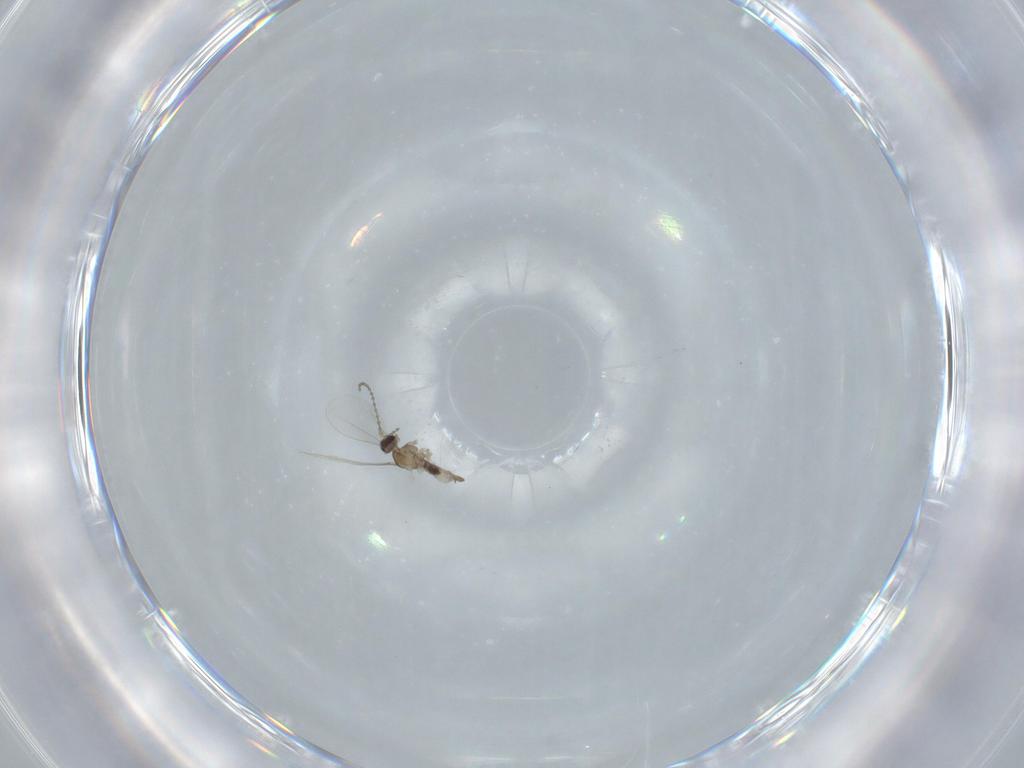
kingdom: Animalia
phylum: Arthropoda
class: Insecta
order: Diptera
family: Cecidomyiidae
